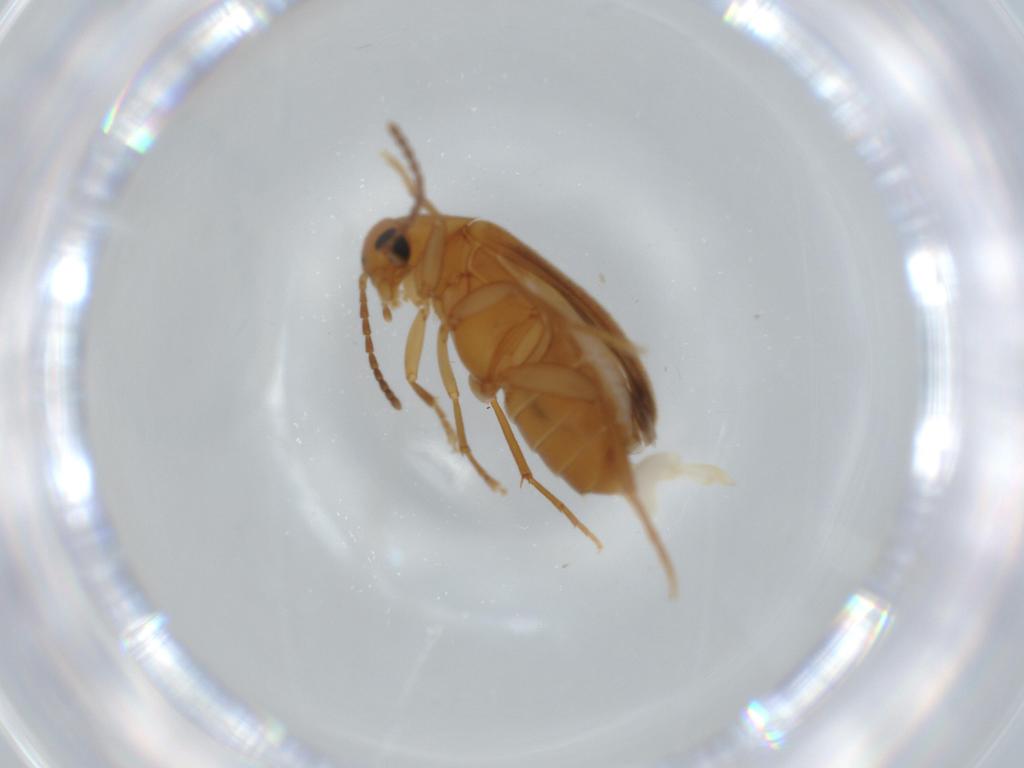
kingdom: Animalia
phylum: Arthropoda
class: Insecta
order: Coleoptera
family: Scraptiidae
